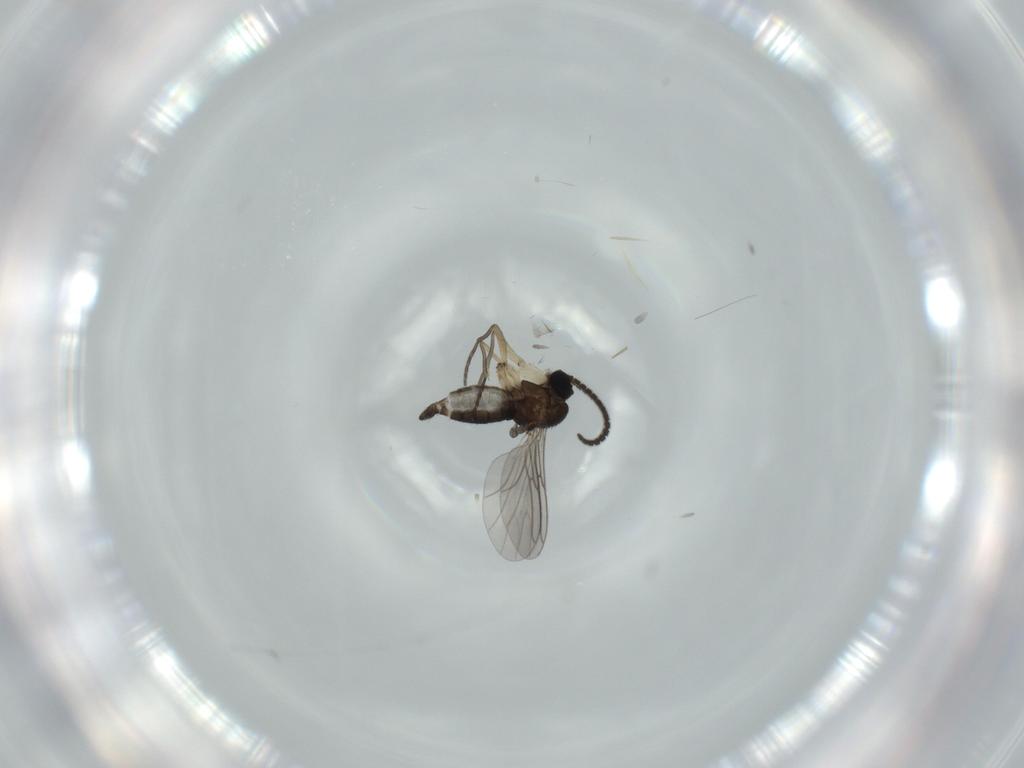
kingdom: Animalia
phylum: Arthropoda
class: Insecta
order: Diptera
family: Sciaridae
